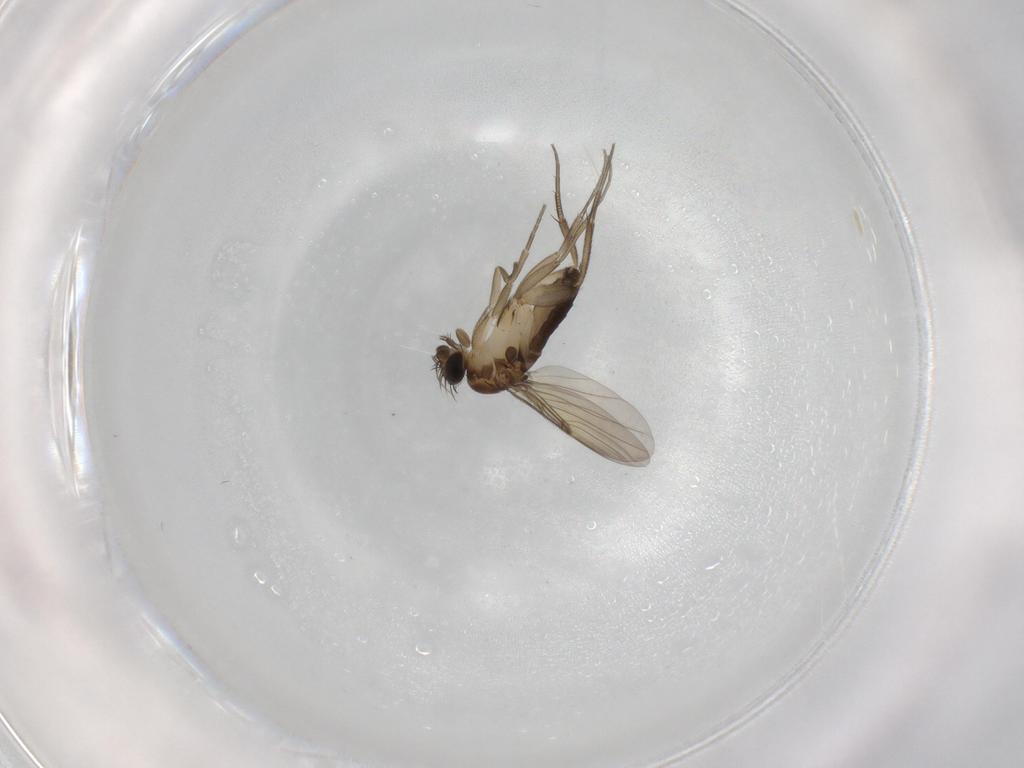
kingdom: Animalia
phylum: Arthropoda
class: Insecta
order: Diptera
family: Phoridae
